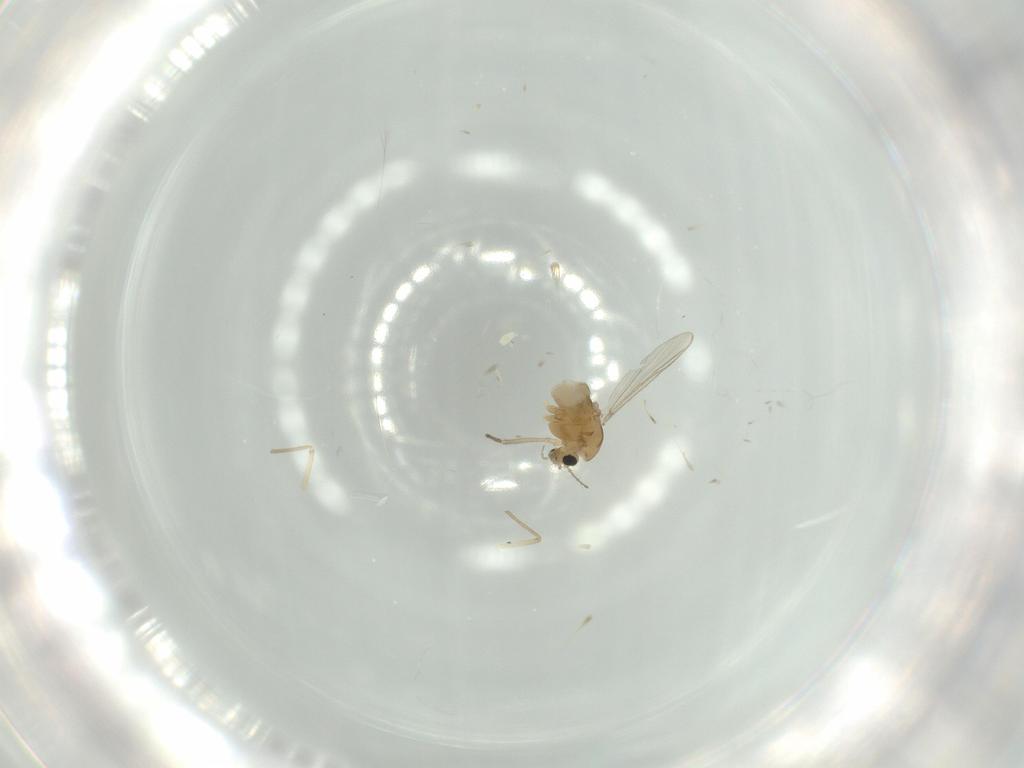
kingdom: Animalia
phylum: Arthropoda
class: Insecta
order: Diptera
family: Chironomidae
